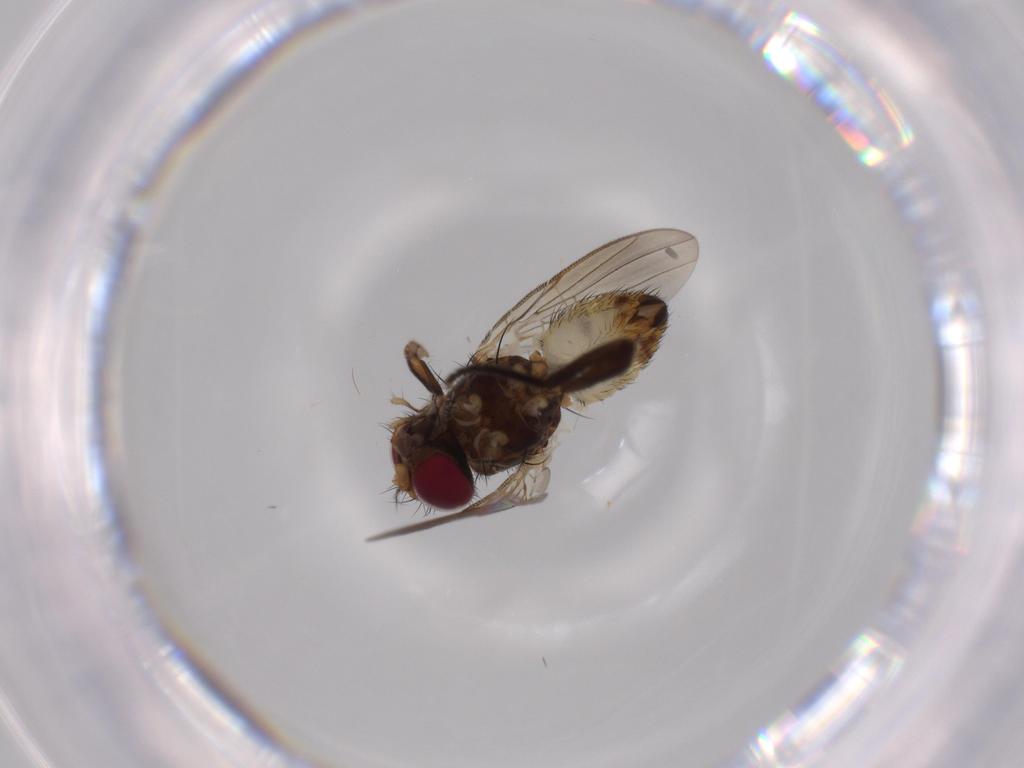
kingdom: Animalia
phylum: Arthropoda
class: Insecta
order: Diptera
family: Anthomyiidae
